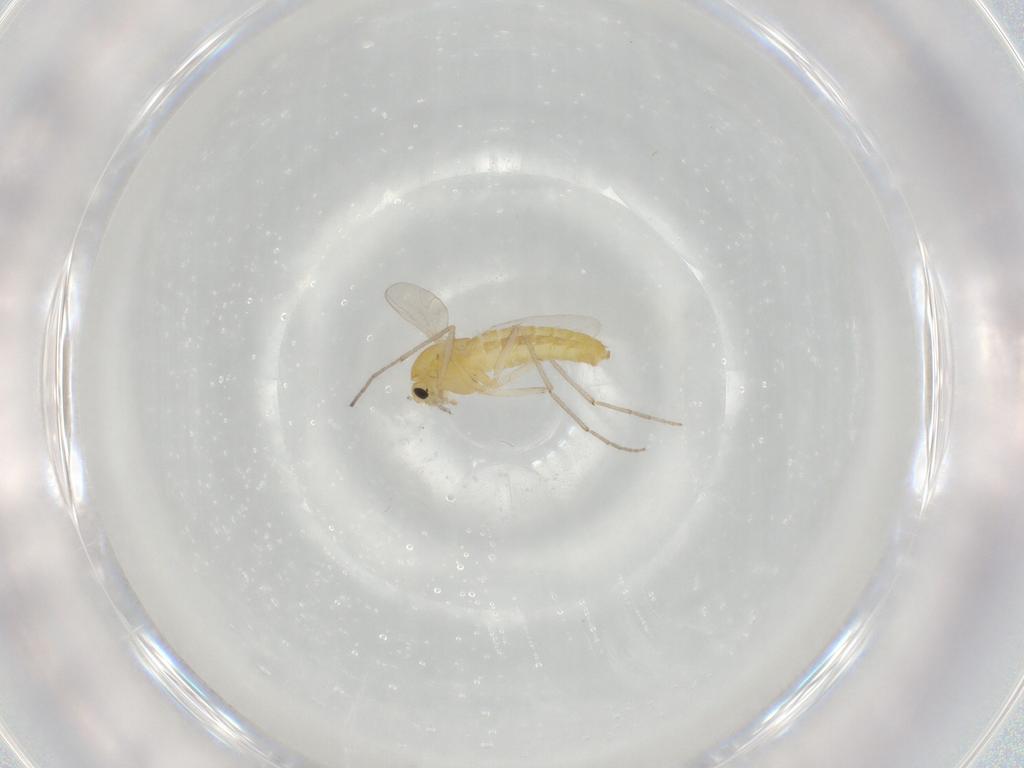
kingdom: Animalia
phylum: Arthropoda
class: Insecta
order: Diptera
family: Chironomidae
